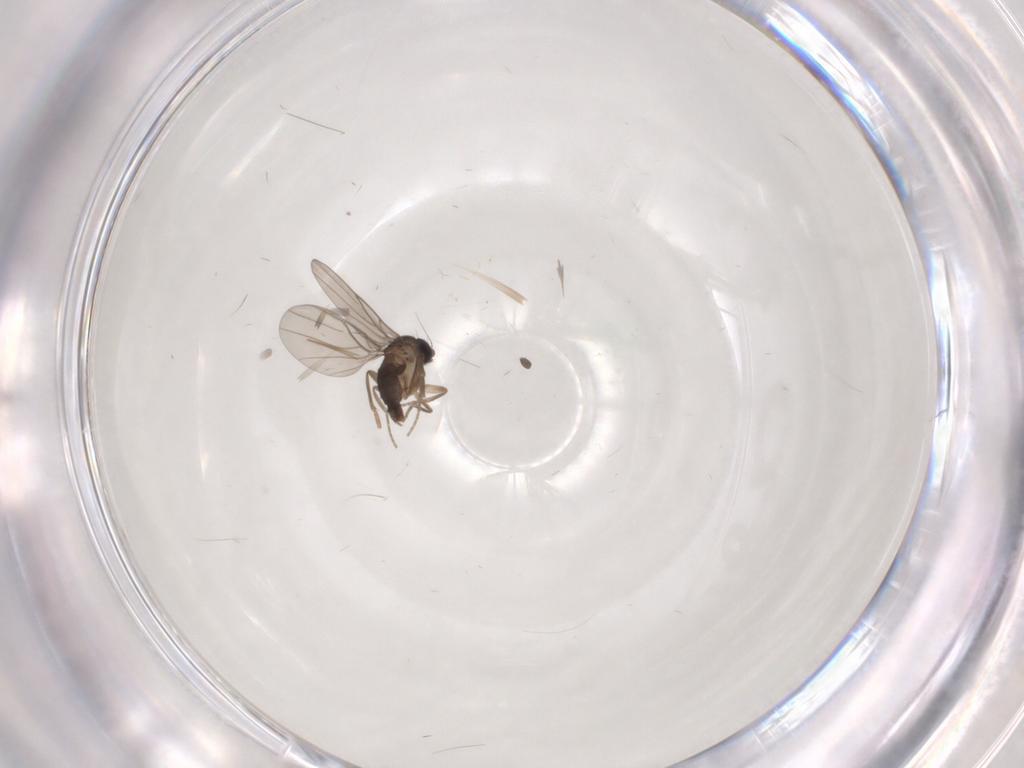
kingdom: Animalia
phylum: Arthropoda
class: Insecta
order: Diptera
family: Phoridae
